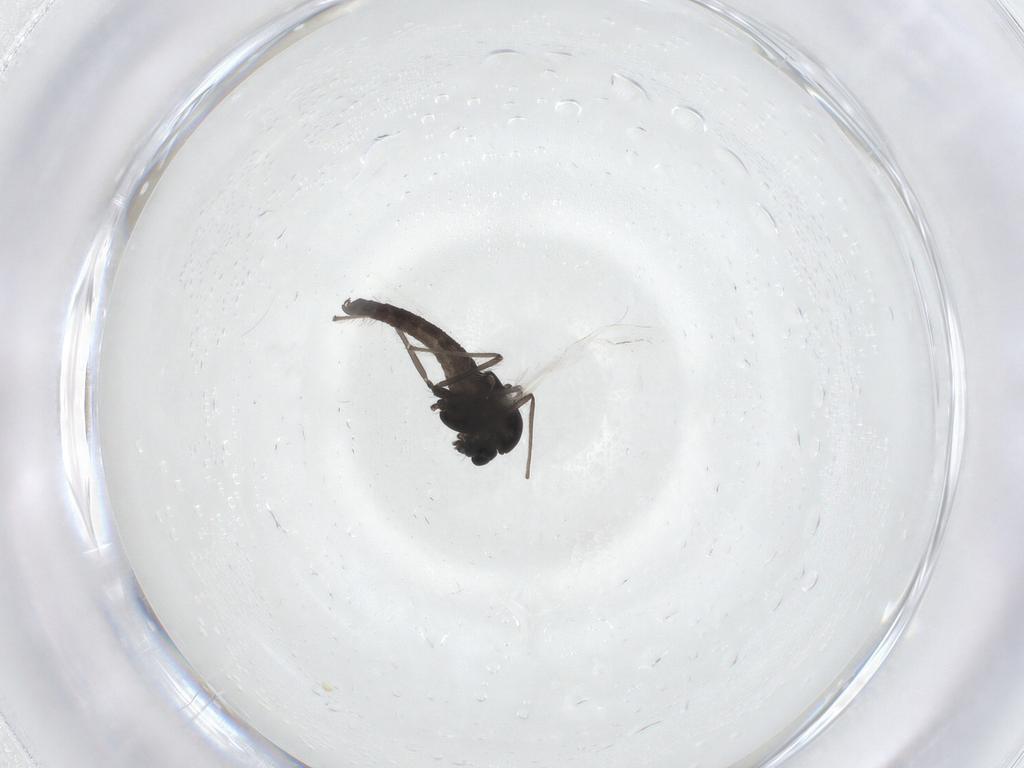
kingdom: Animalia
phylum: Arthropoda
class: Insecta
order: Diptera
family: Chironomidae
